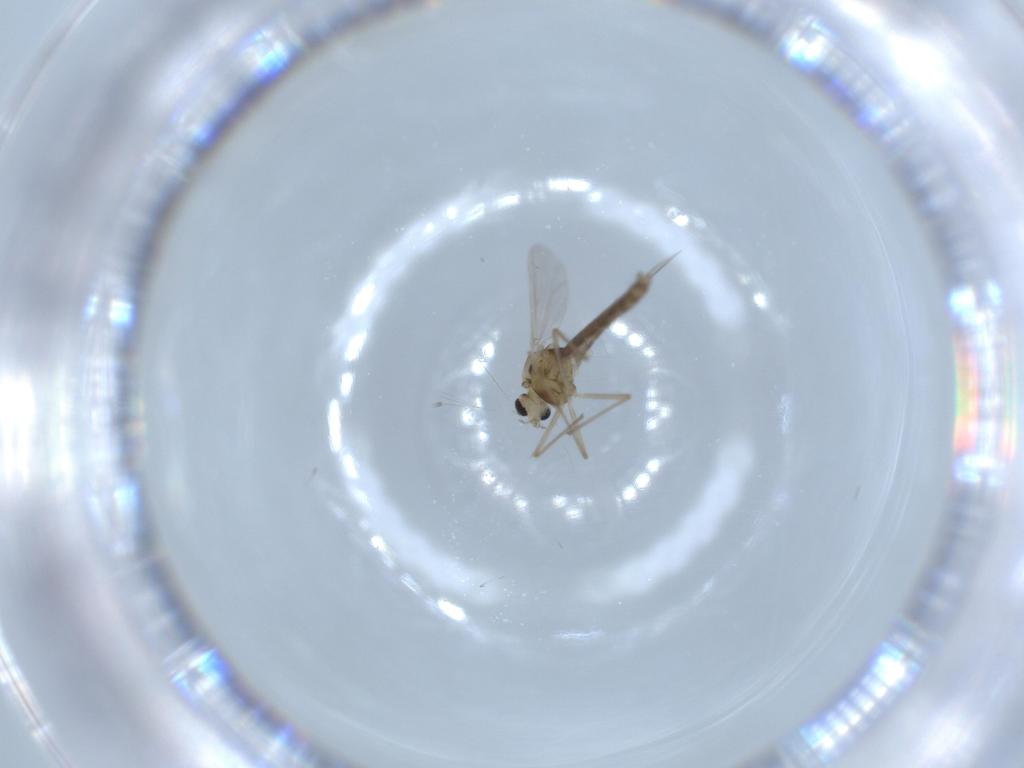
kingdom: Animalia
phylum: Arthropoda
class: Insecta
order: Diptera
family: Chironomidae
